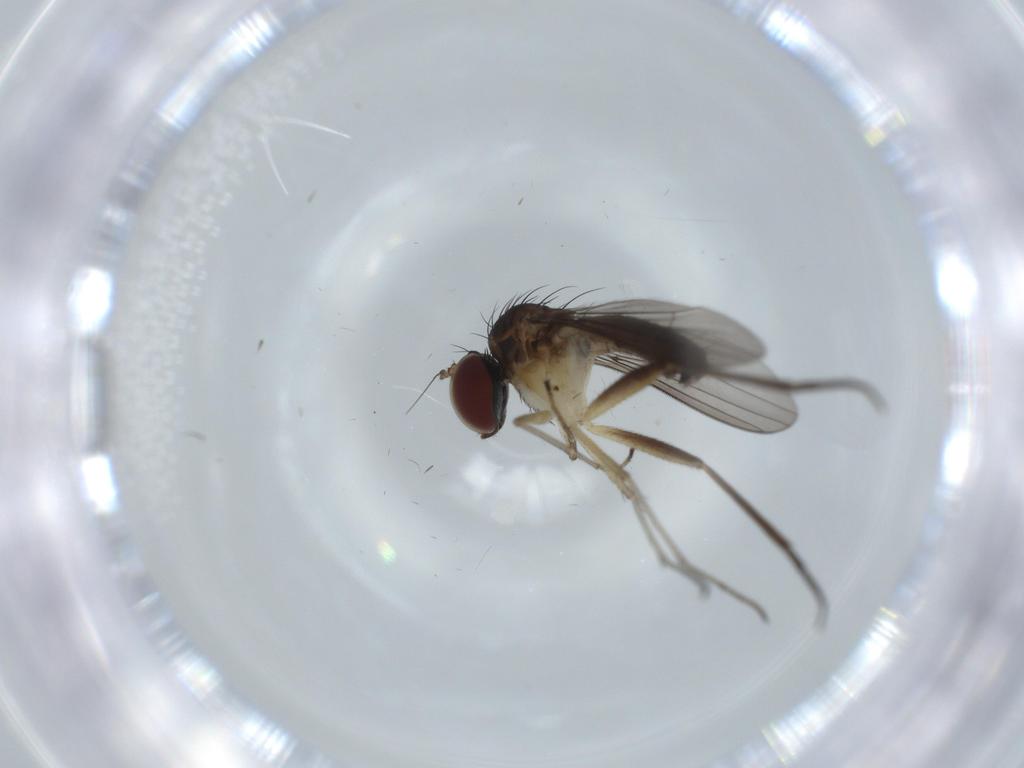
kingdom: Animalia
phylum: Arthropoda
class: Insecta
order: Diptera
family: Dolichopodidae
